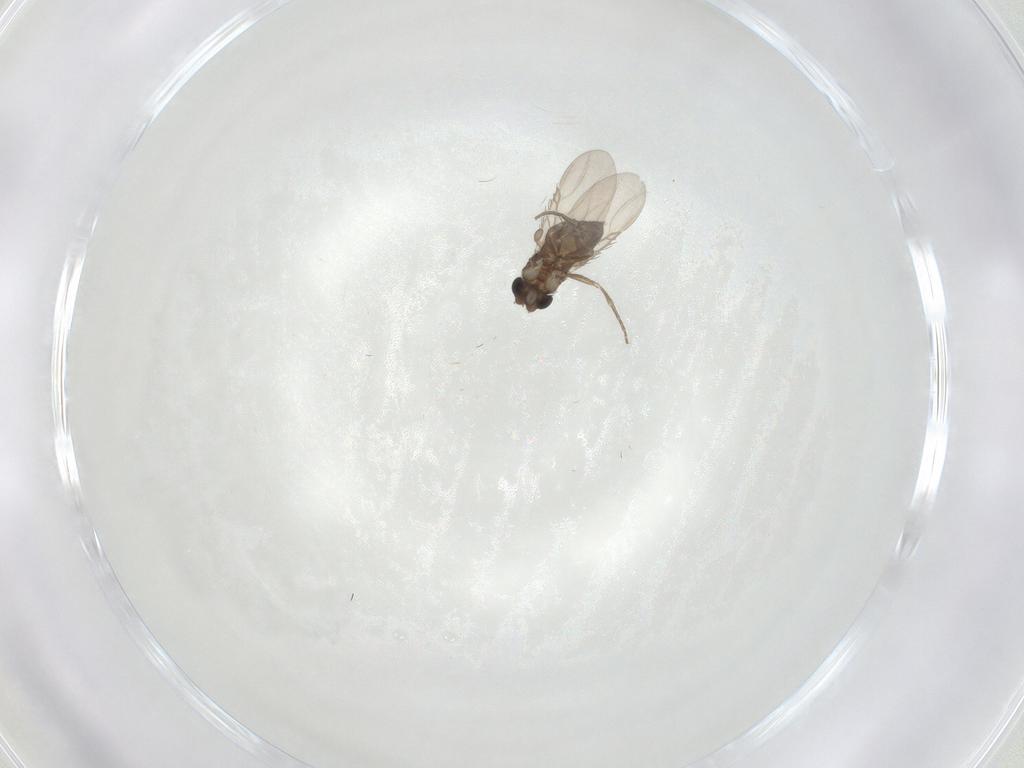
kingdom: Animalia
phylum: Arthropoda
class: Insecta
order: Diptera
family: Phoridae
